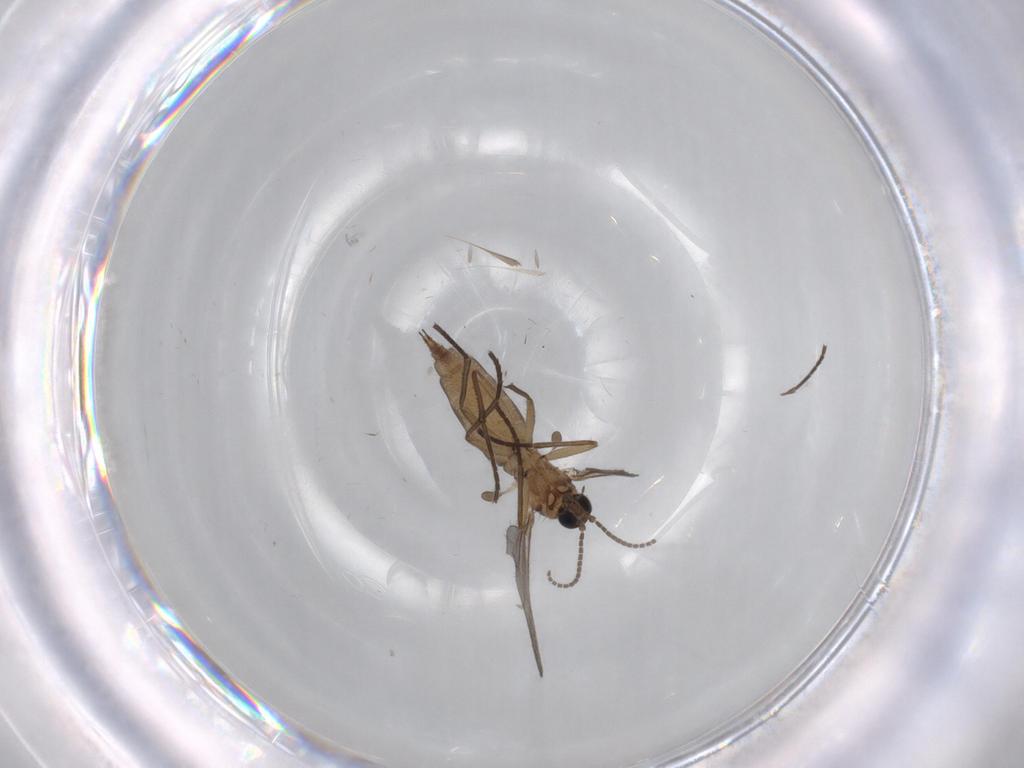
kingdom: Animalia
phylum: Arthropoda
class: Insecta
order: Diptera
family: Sciaridae
